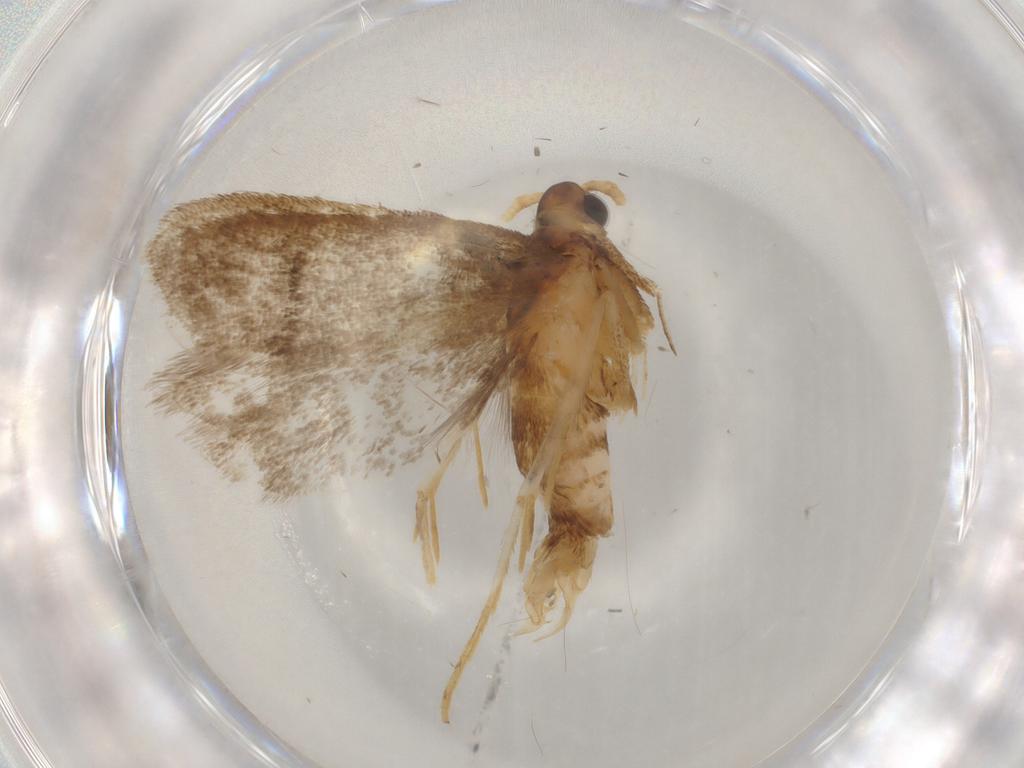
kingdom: Animalia
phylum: Arthropoda
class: Insecta
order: Lepidoptera
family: Lecithoceridae
